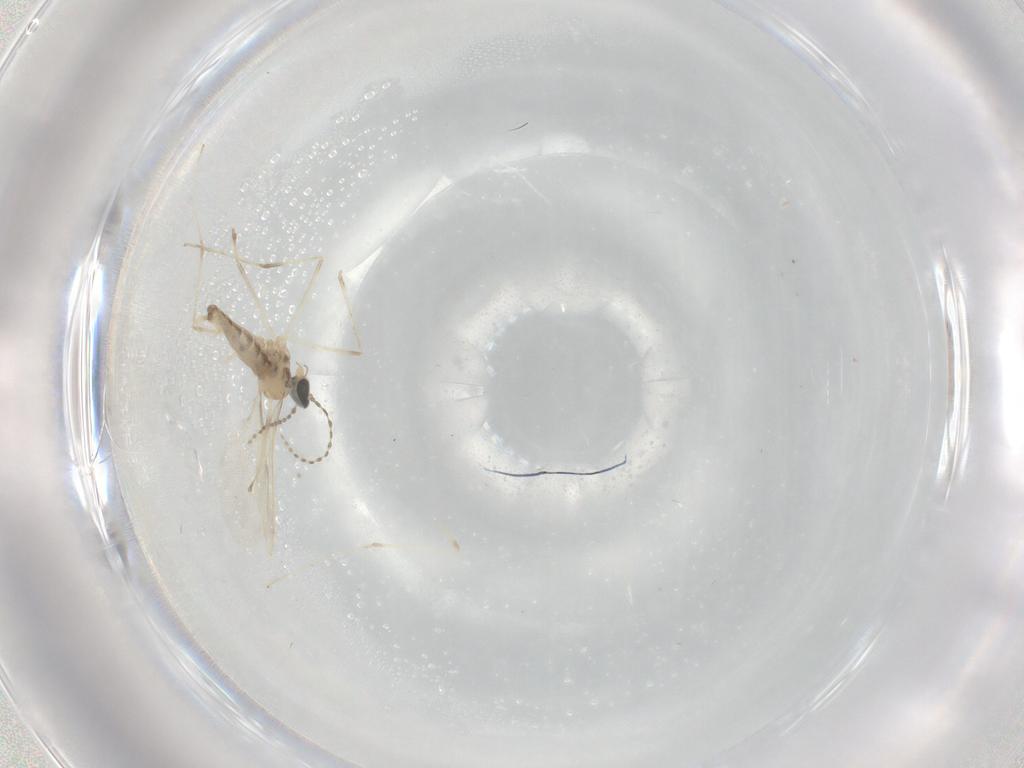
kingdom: Animalia
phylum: Arthropoda
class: Insecta
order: Diptera
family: Cecidomyiidae
